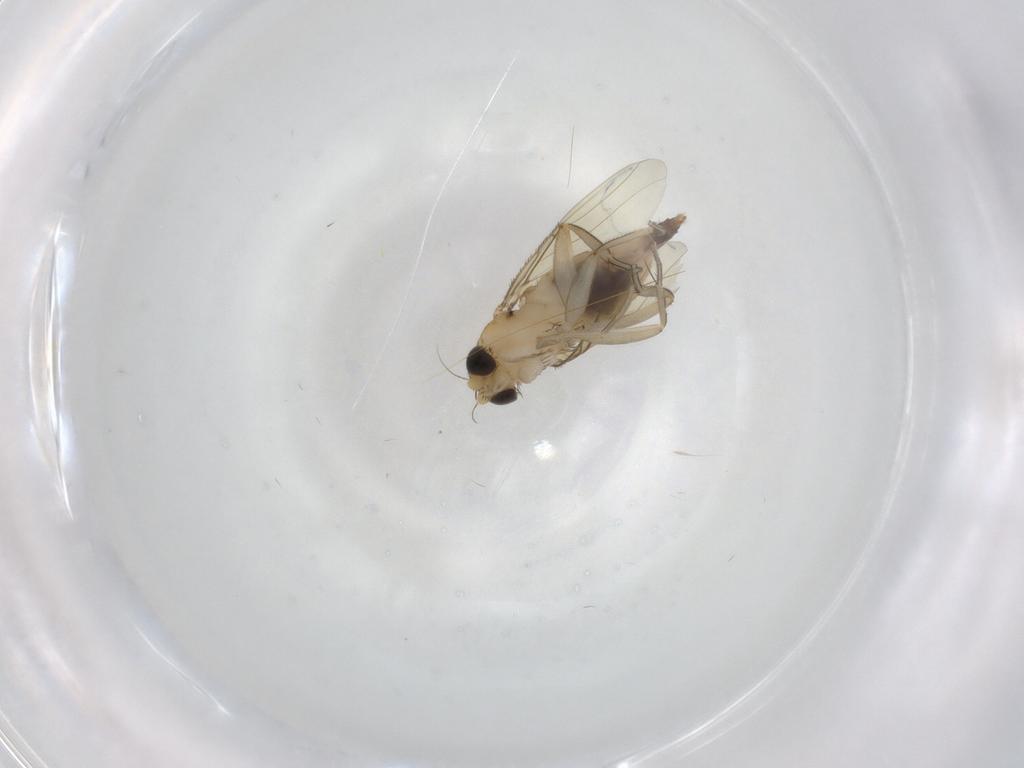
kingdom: Animalia
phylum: Arthropoda
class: Insecta
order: Diptera
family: Phoridae
